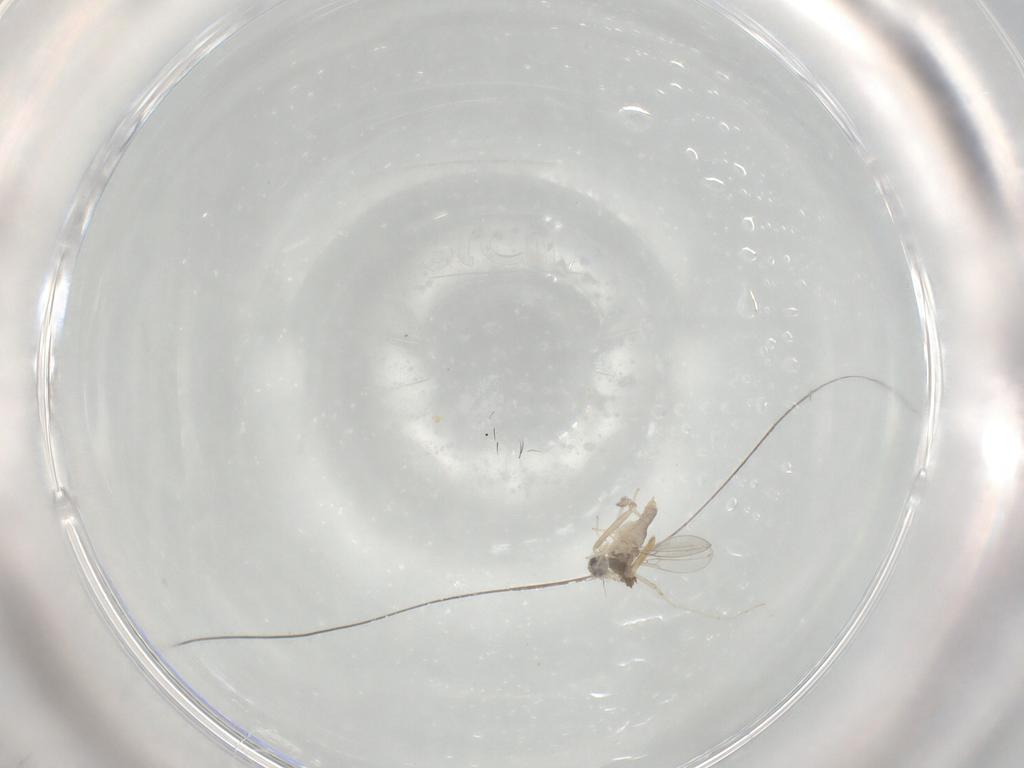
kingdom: Animalia
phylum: Arthropoda
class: Insecta
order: Diptera
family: Cecidomyiidae
